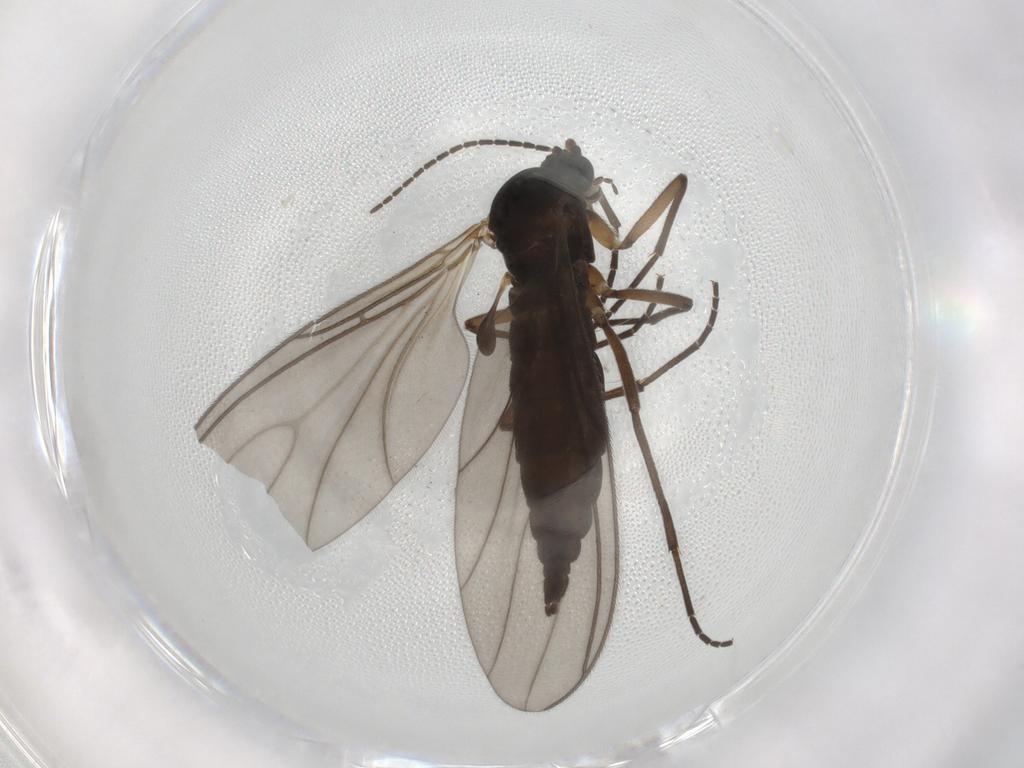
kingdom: Animalia
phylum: Arthropoda
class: Insecta
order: Diptera
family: Sciaridae
